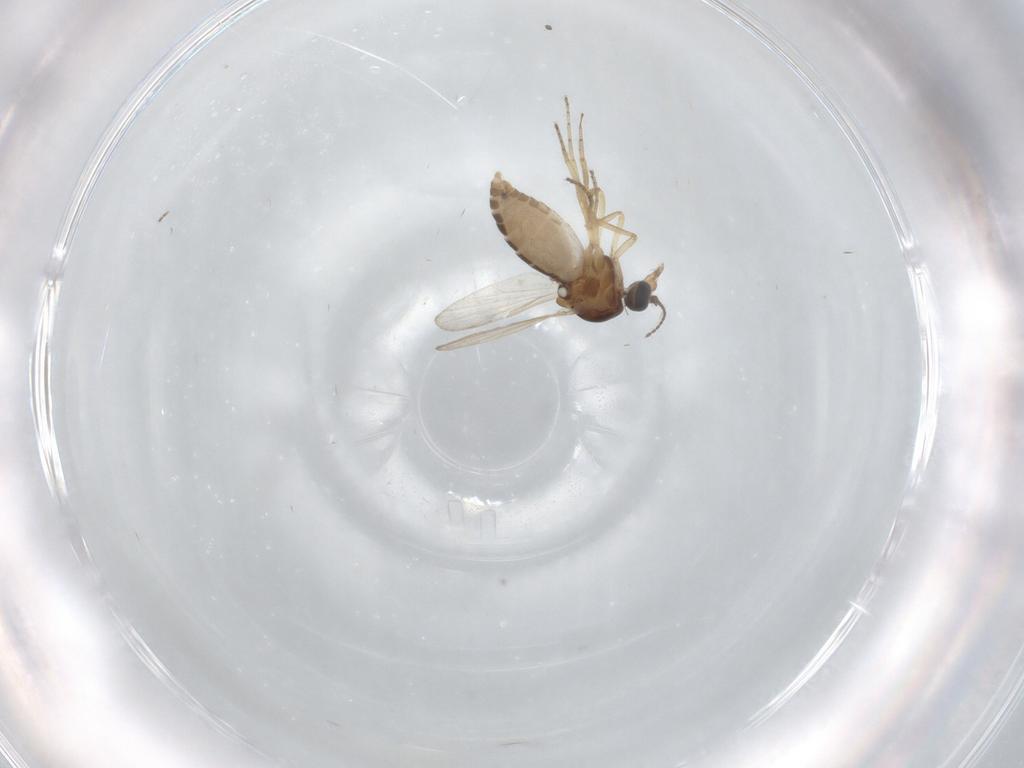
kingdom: Animalia
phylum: Arthropoda
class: Insecta
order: Diptera
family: Ceratopogonidae
